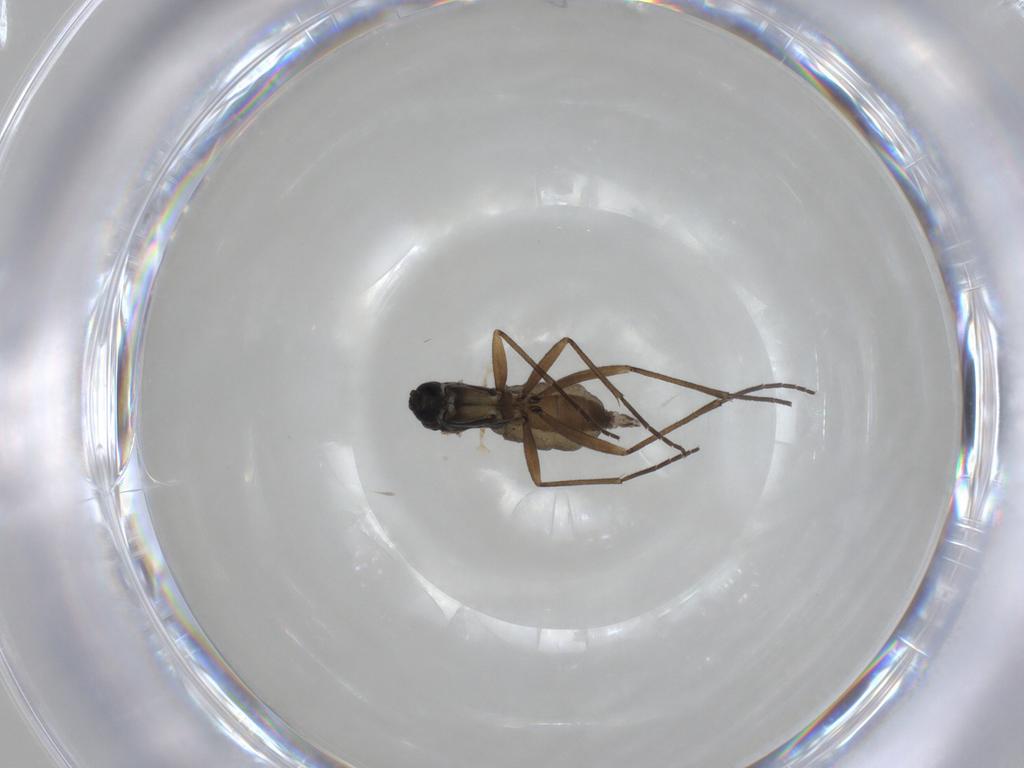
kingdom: Animalia
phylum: Arthropoda
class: Insecta
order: Diptera
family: Sciaridae
